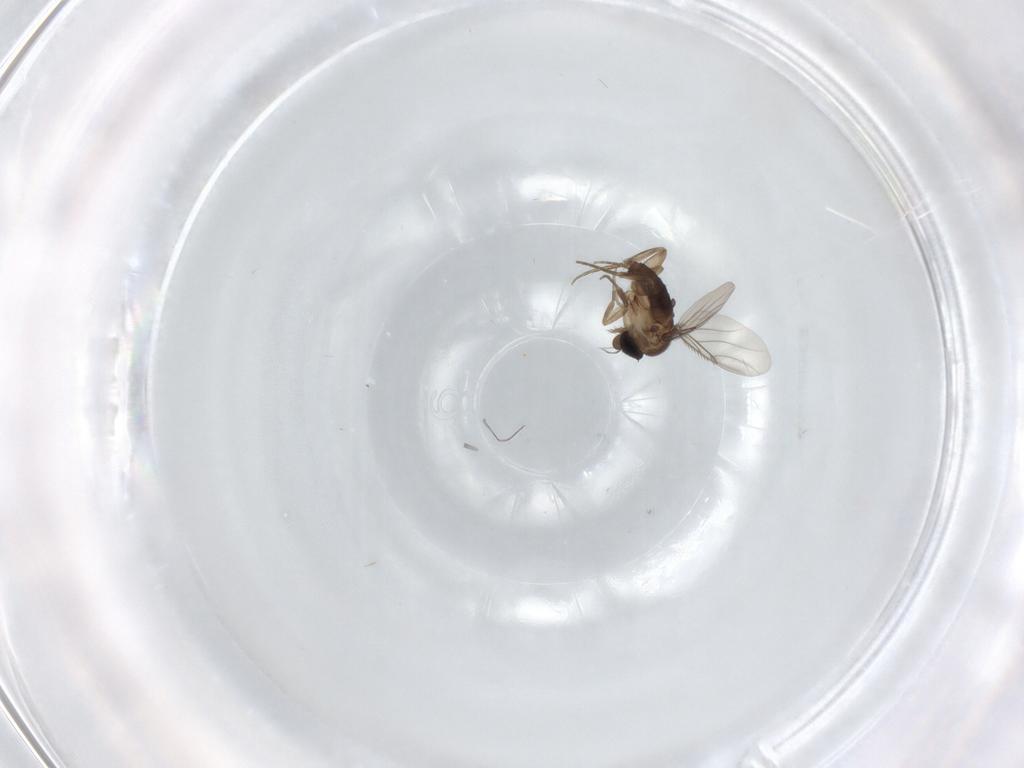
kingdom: Animalia
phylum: Arthropoda
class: Insecta
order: Diptera
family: Phoridae
